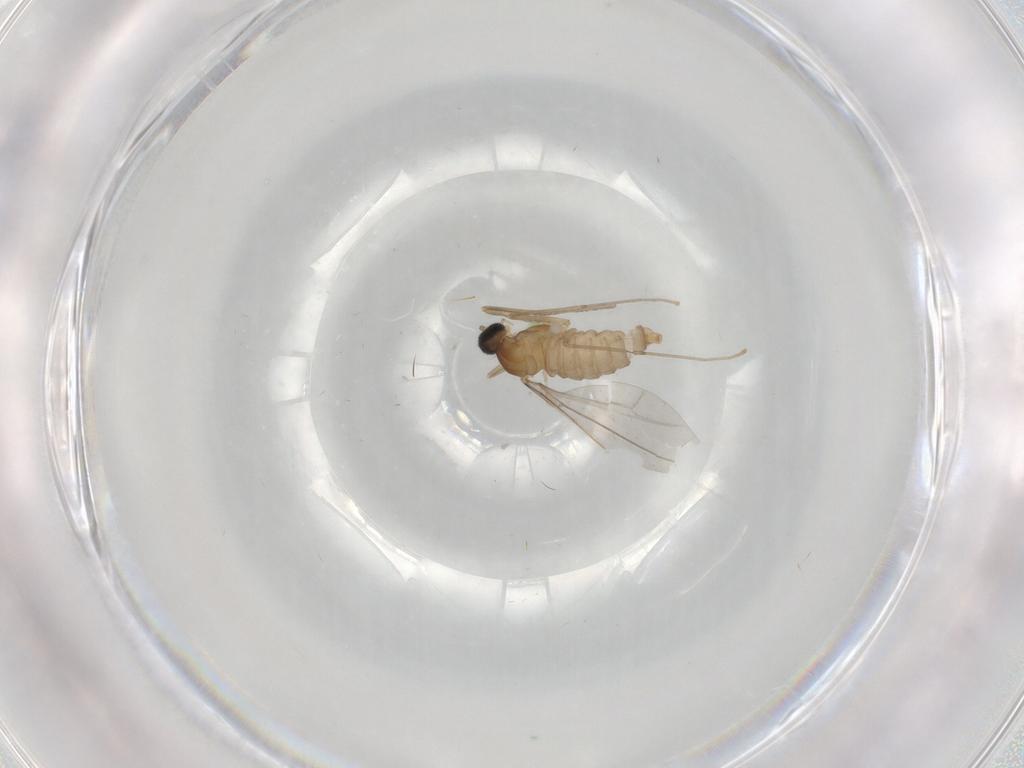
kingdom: Animalia
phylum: Arthropoda
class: Insecta
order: Diptera
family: Cecidomyiidae
